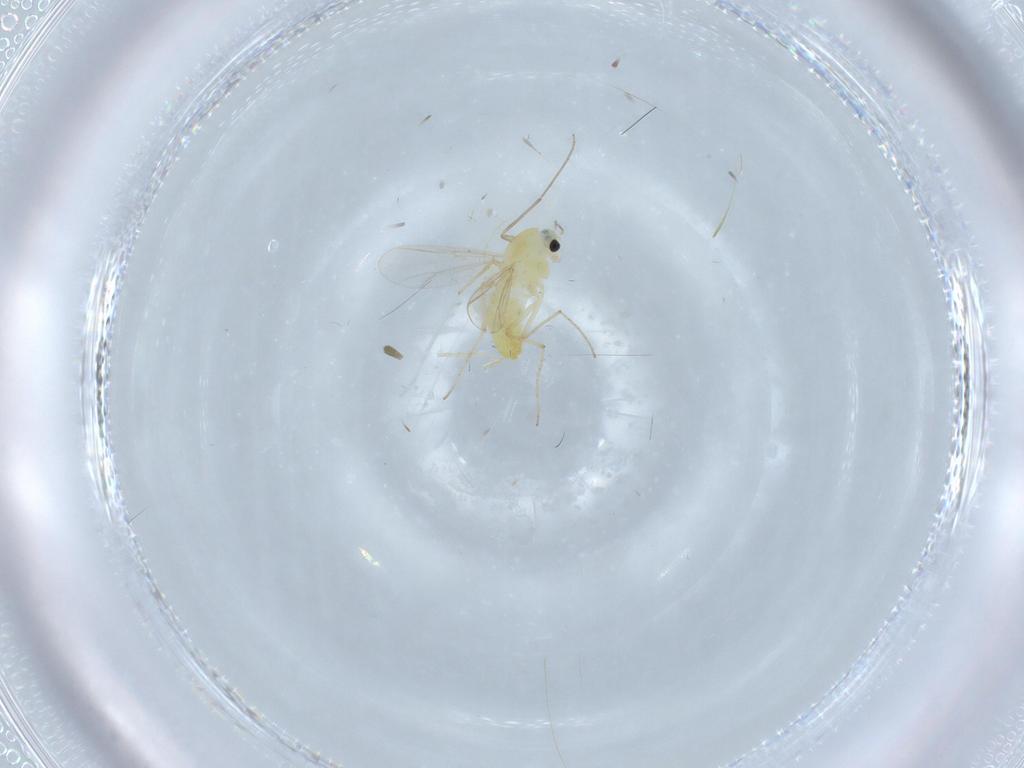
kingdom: Animalia
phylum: Arthropoda
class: Insecta
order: Diptera
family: Chironomidae
